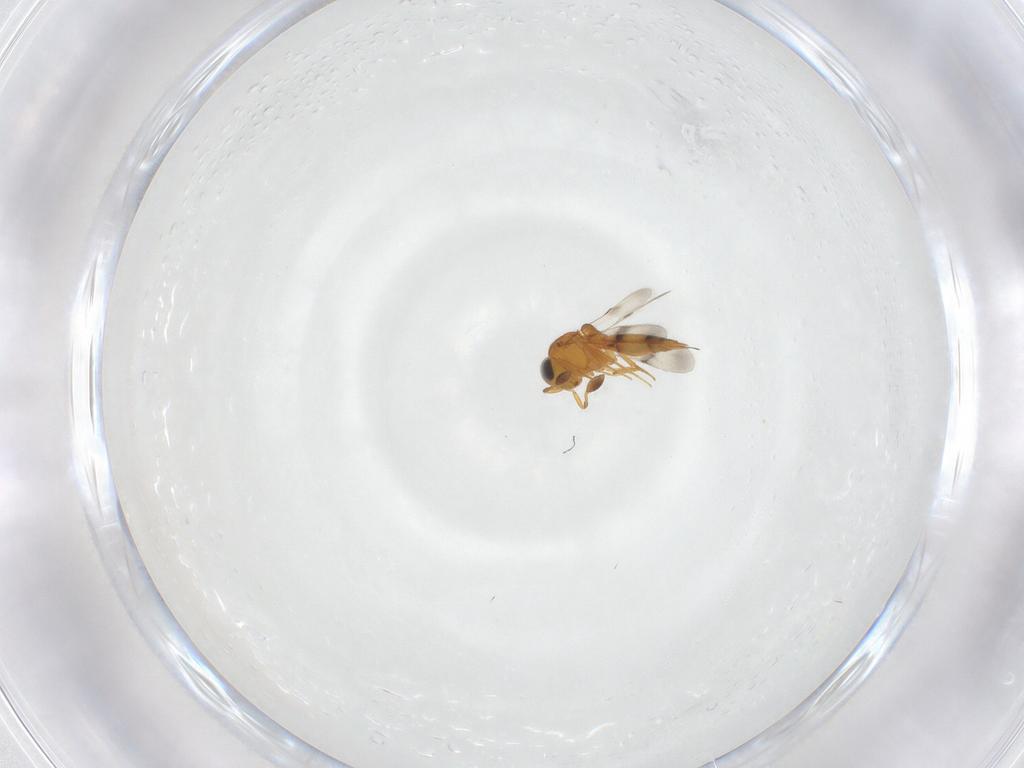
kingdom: Animalia
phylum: Arthropoda
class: Insecta
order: Hymenoptera
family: Scelionidae
